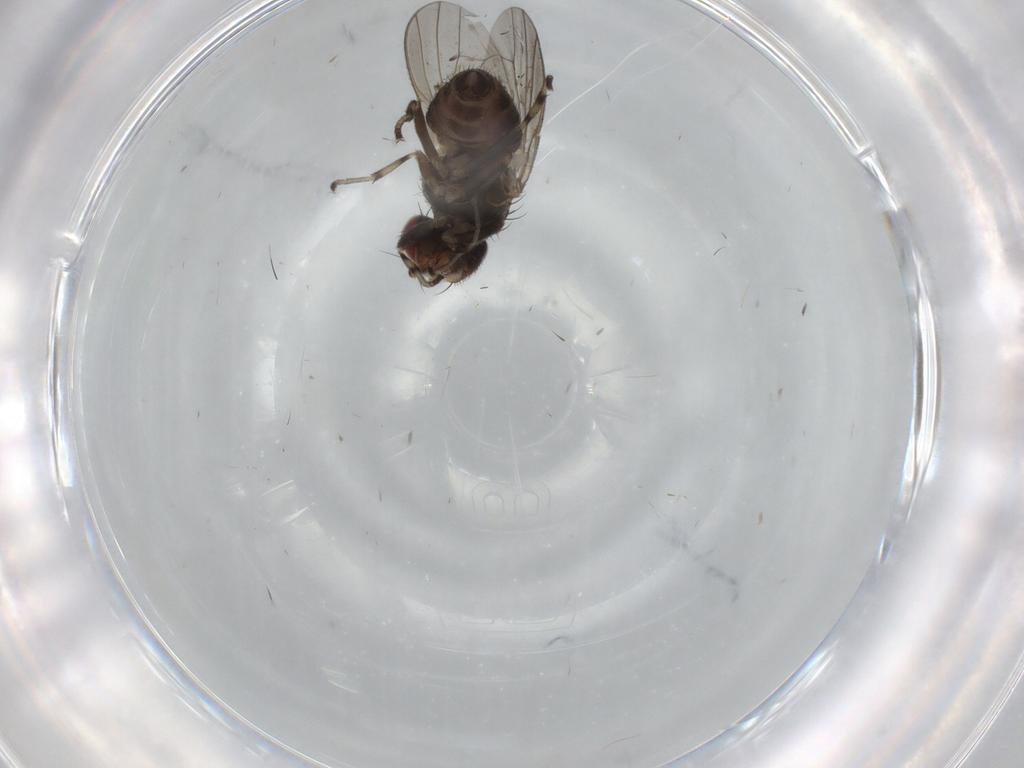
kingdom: Animalia
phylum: Arthropoda
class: Insecta
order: Diptera
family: Heleomyzidae
